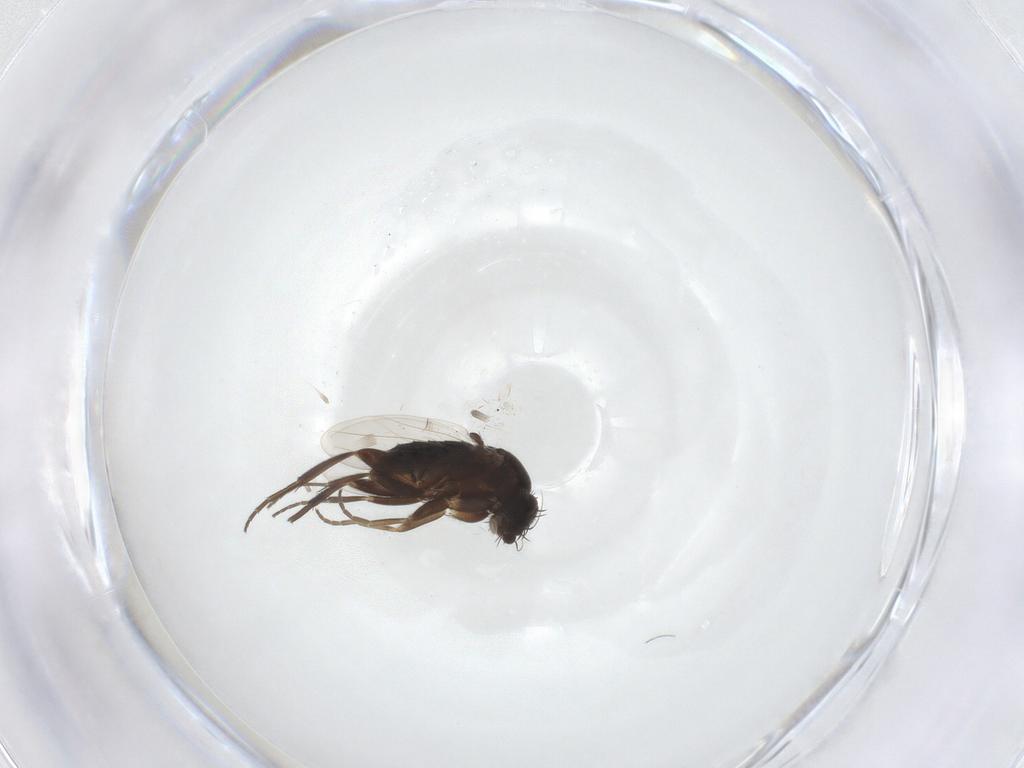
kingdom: Animalia
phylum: Arthropoda
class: Insecta
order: Diptera
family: Phoridae
